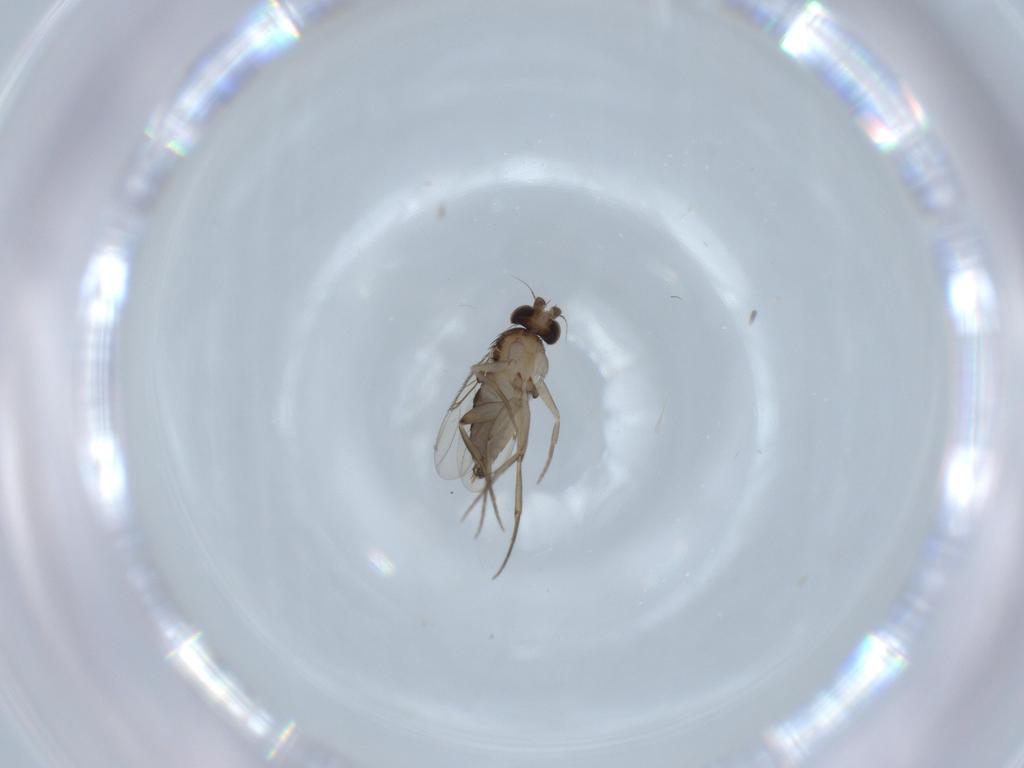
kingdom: Animalia
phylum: Arthropoda
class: Insecta
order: Diptera
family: Phoridae
